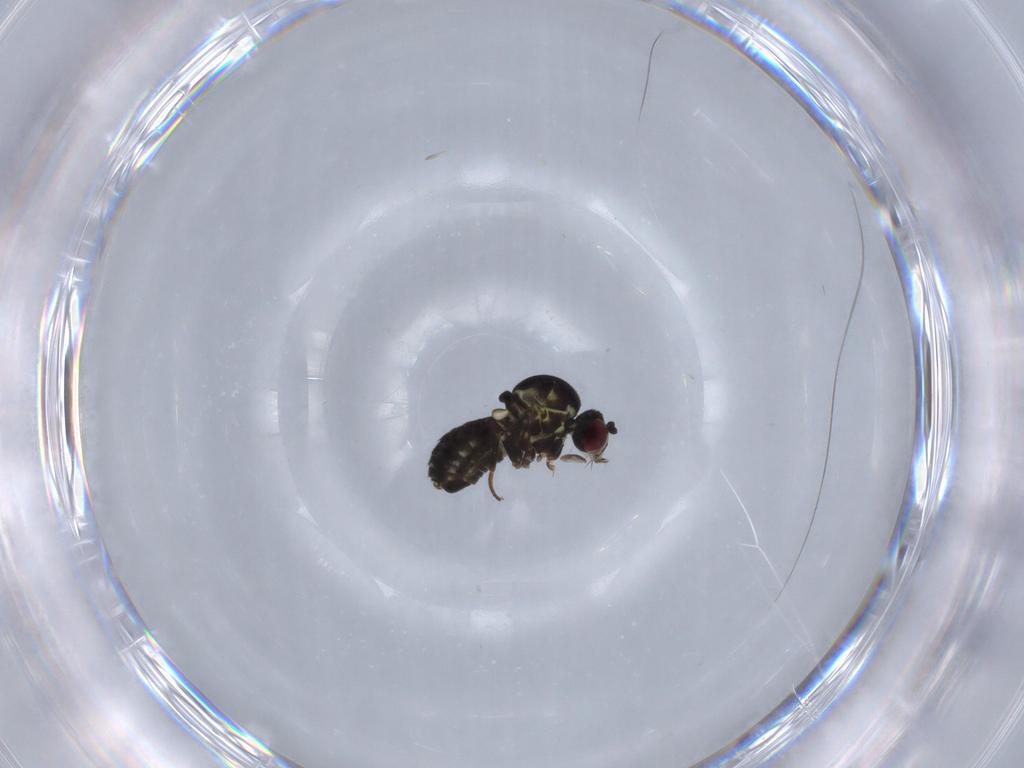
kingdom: Animalia
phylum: Arthropoda
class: Insecta
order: Diptera
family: Bombyliidae
